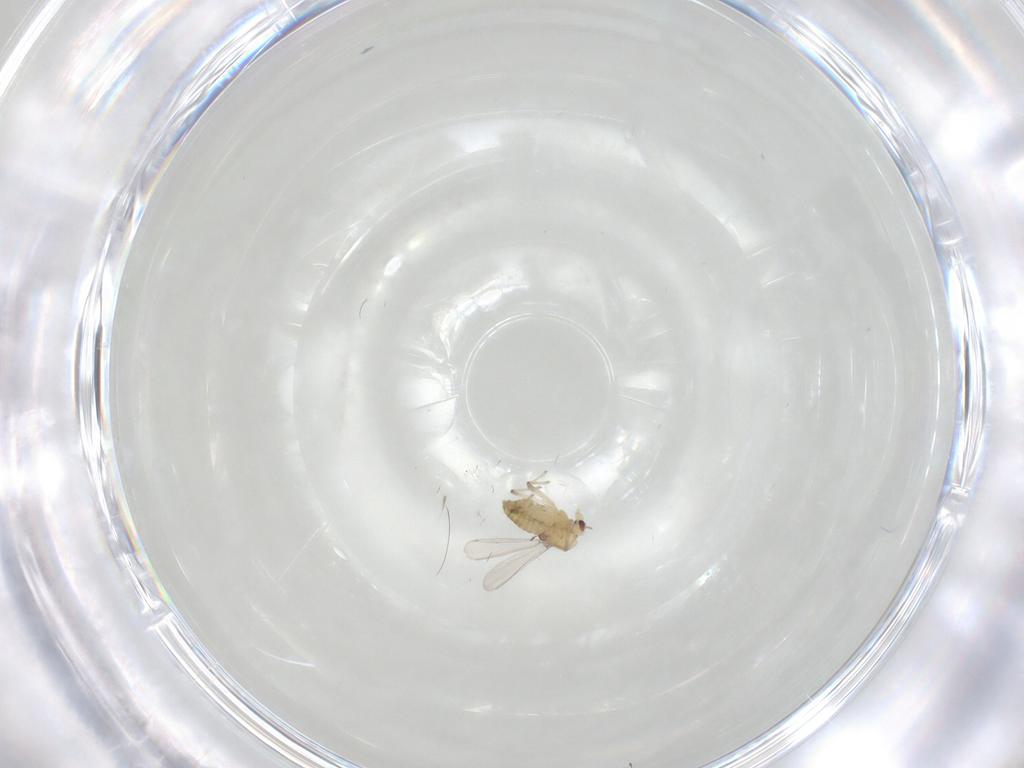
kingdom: Animalia
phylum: Arthropoda
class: Insecta
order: Diptera
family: Chironomidae
